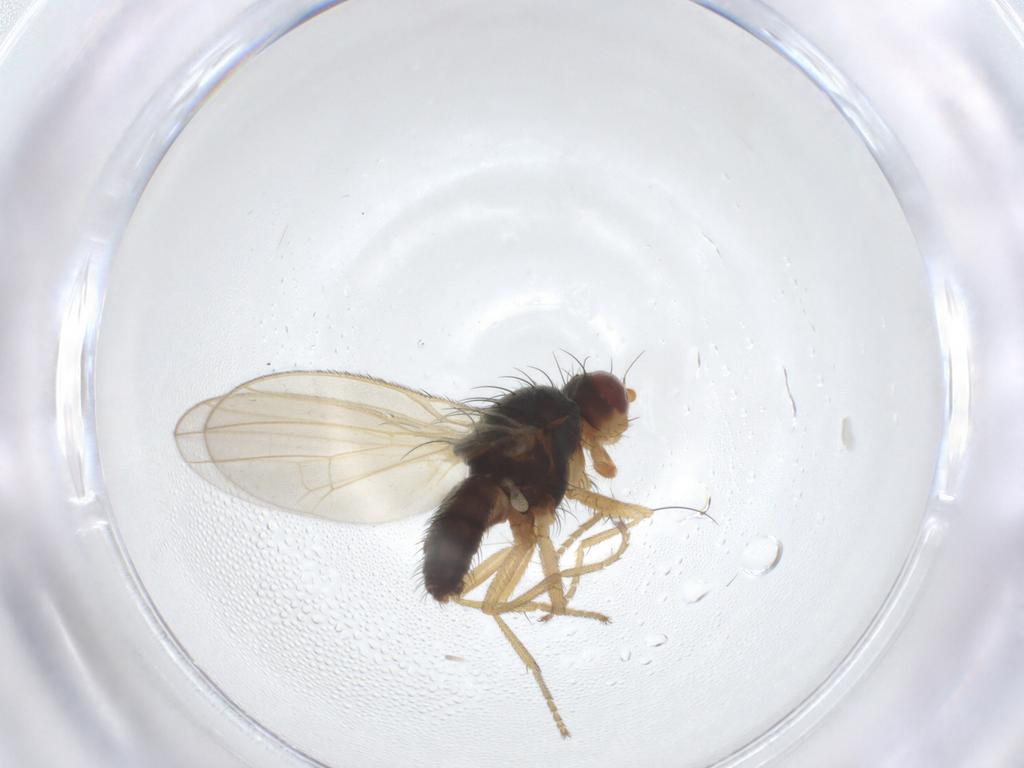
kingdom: Animalia
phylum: Arthropoda
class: Insecta
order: Diptera
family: Heleomyzidae
